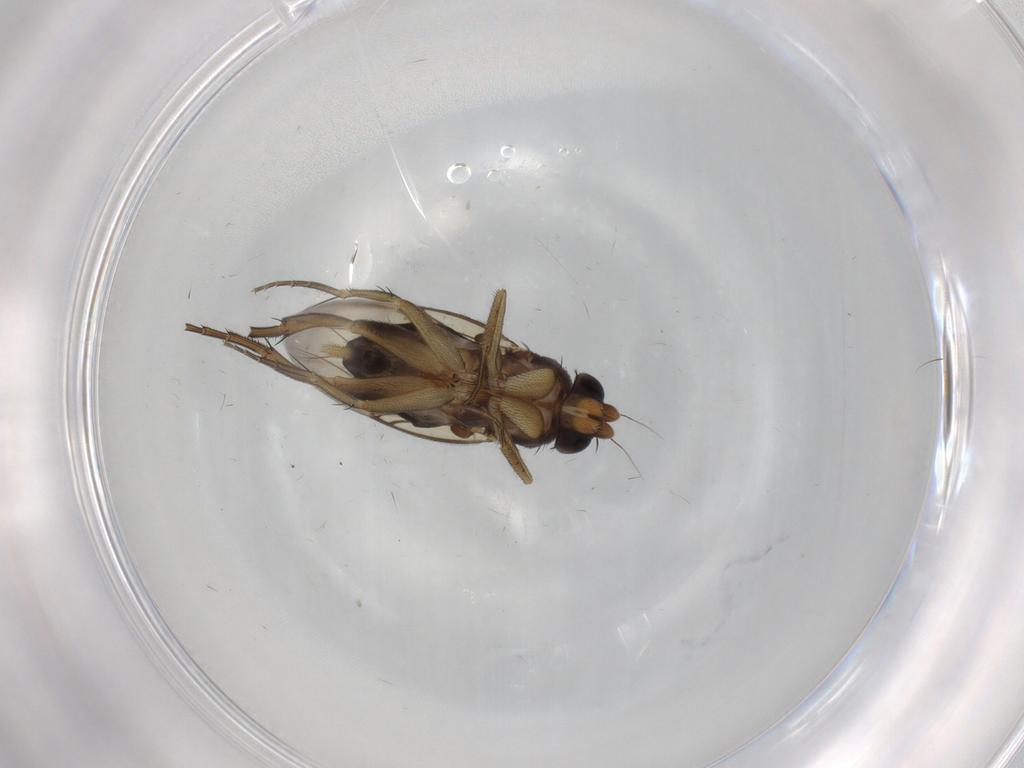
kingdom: Animalia
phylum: Arthropoda
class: Insecta
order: Diptera
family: Phoridae
